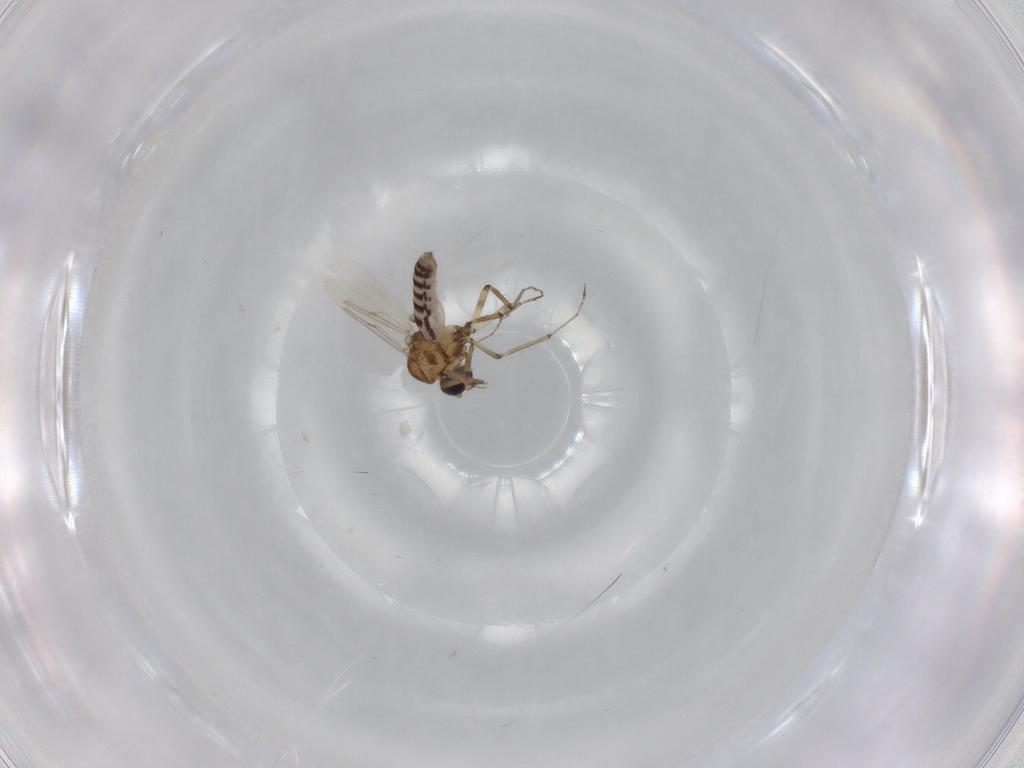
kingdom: Animalia
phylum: Arthropoda
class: Insecta
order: Diptera
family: Ceratopogonidae
